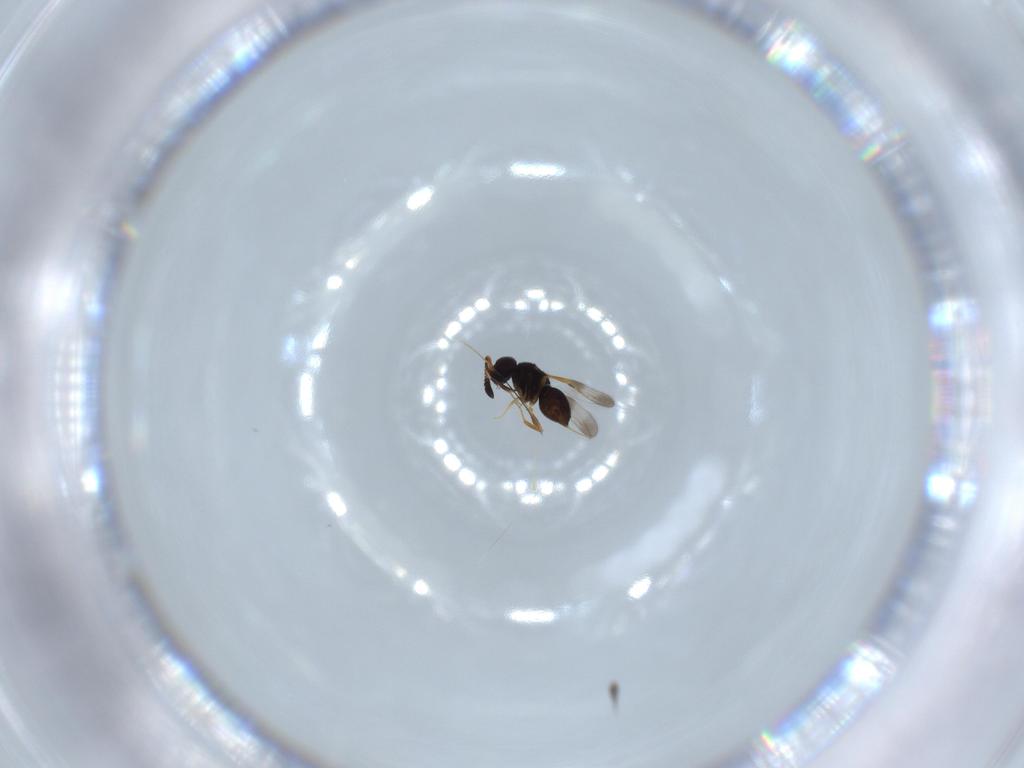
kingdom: Animalia
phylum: Arthropoda
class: Insecta
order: Hymenoptera
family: Ceraphronidae
